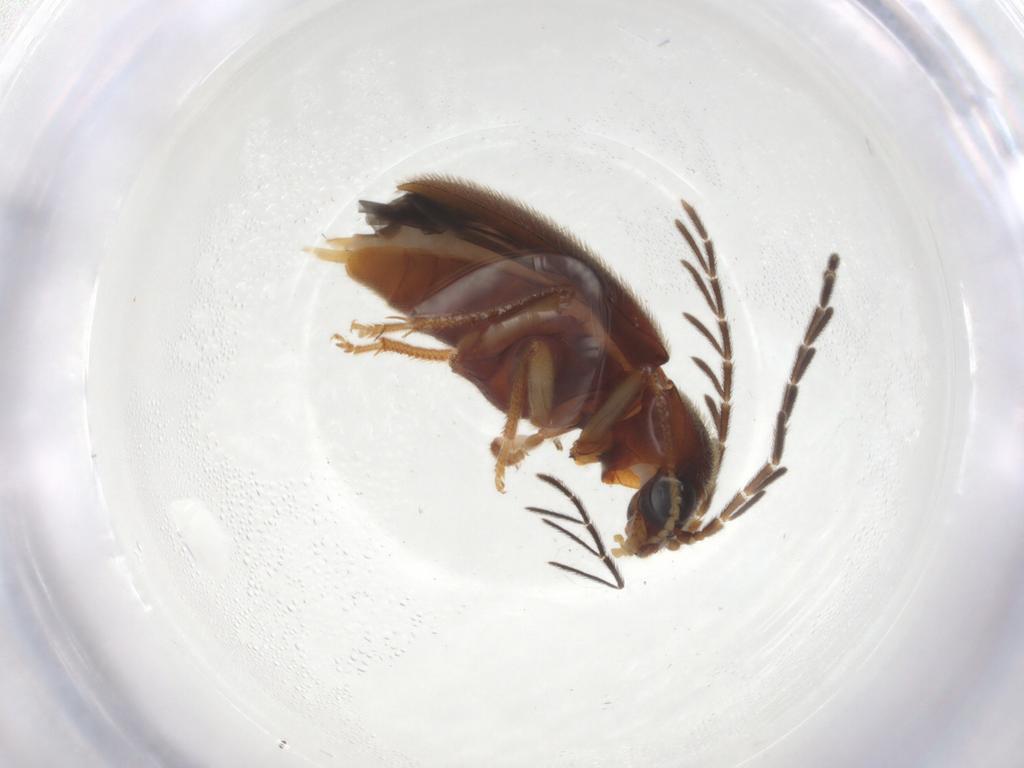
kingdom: Animalia
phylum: Arthropoda
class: Insecta
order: Coleoptera
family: Ptilodactylidae
